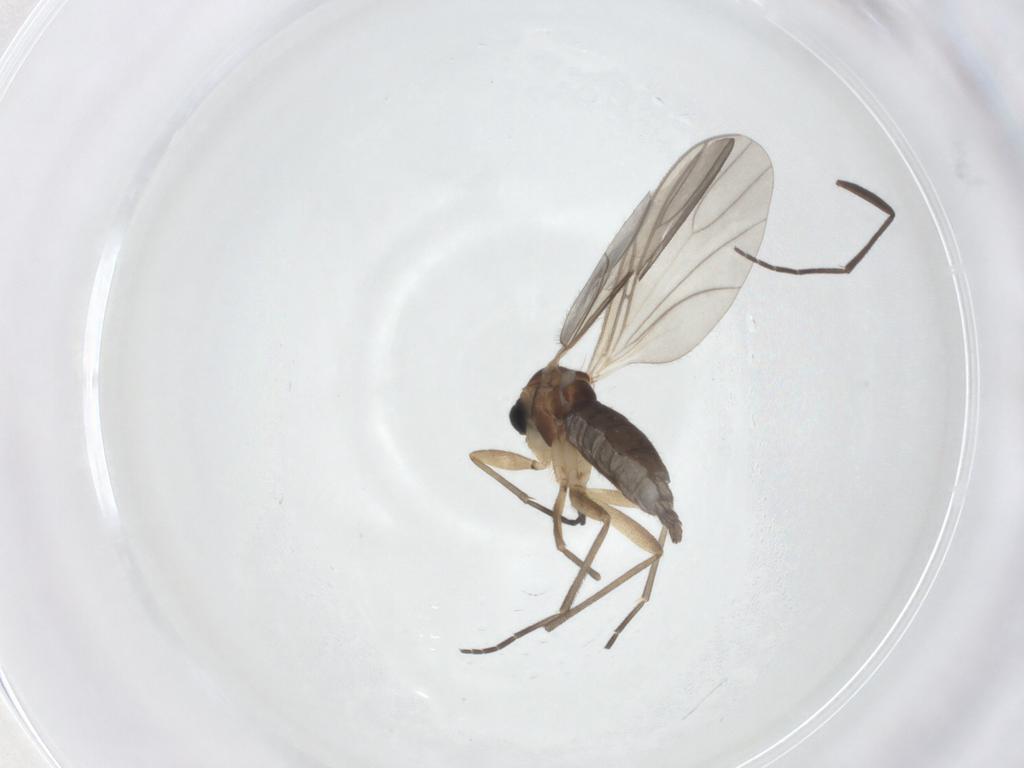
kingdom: Animalia
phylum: Arthropoda
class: Insecta
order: Diptera
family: Sciaridae
